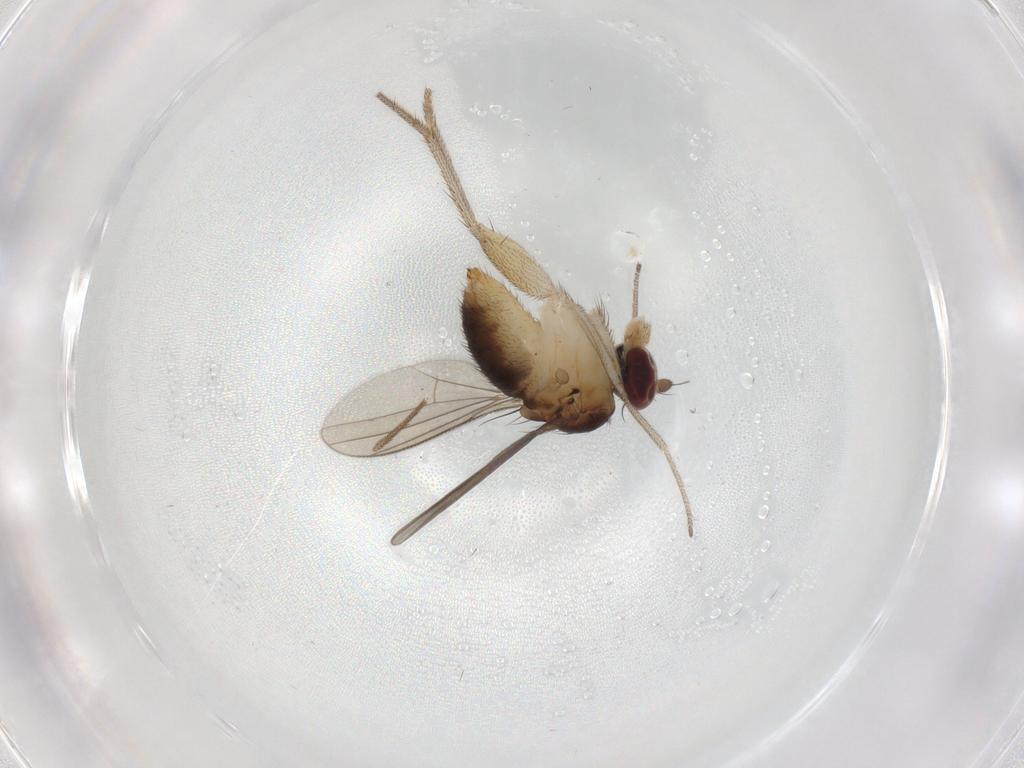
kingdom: Animalia
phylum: Arthropoda
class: Insecta
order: Diptera
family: Dolichopodidae
